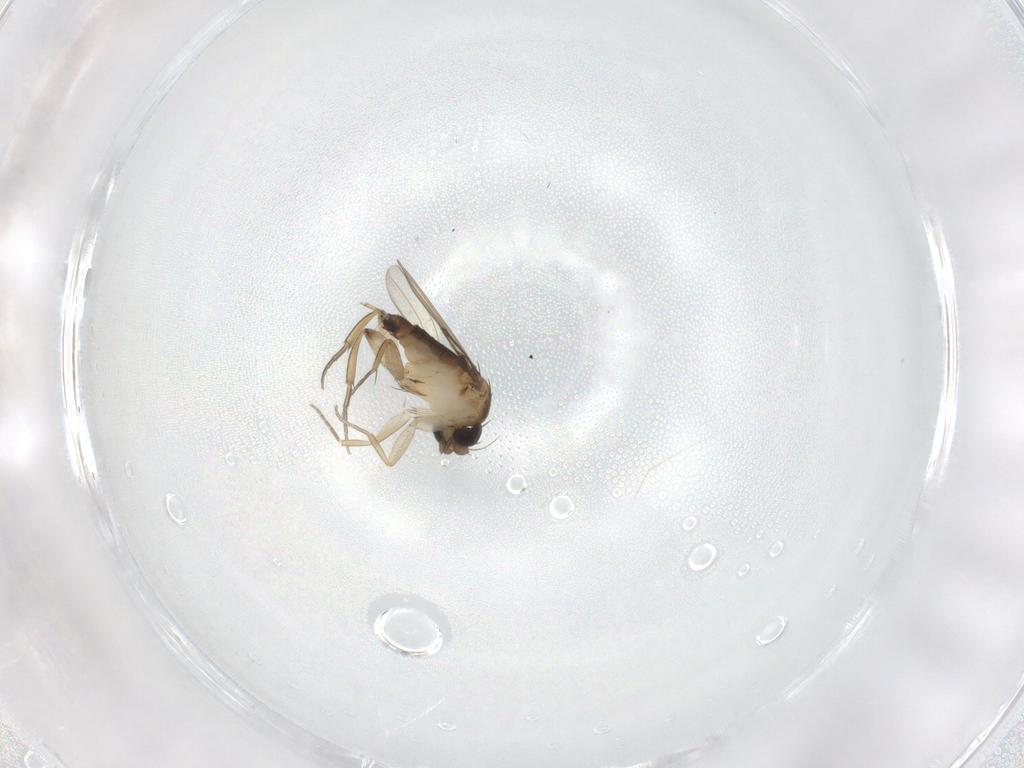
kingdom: Animalia
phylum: Arthropoda
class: Insecta
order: Diptera
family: Phoridae
